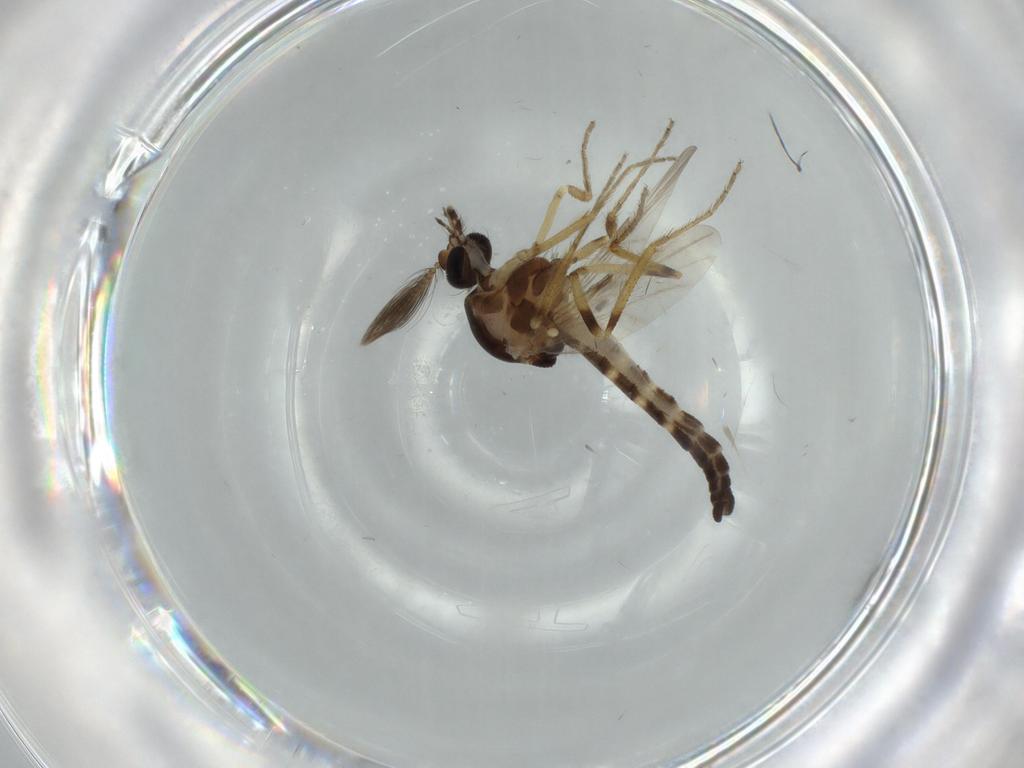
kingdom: Animalia
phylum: Arthropoda
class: Insecta
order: Diptera
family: Ceratopogonidae
